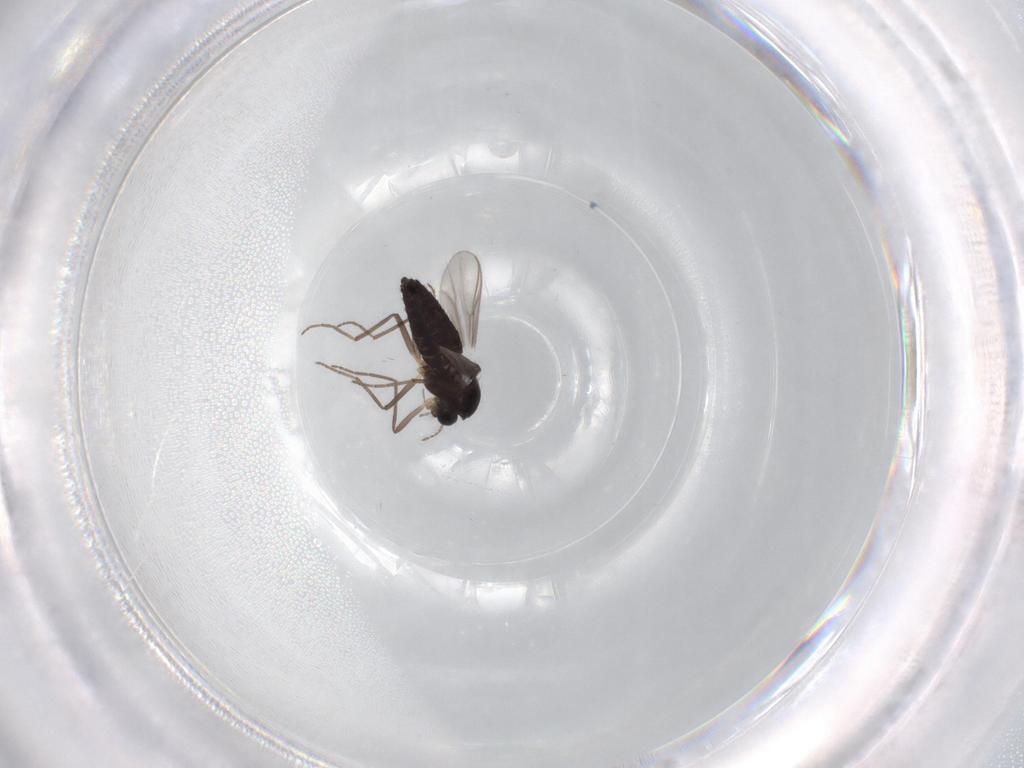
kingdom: Animalia
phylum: Arthropoda
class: Insecta
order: Diptera
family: Chironomidae
